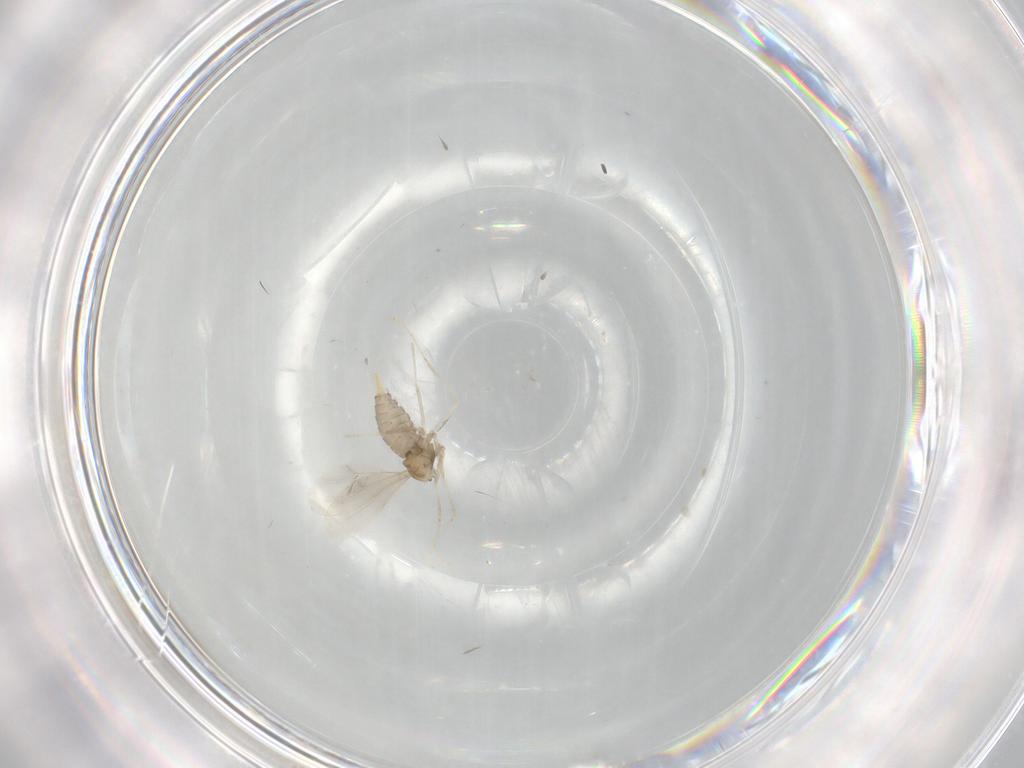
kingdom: Animalia
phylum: Arthropoda
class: Insecta
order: Diptera
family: Cecidomyiidae
